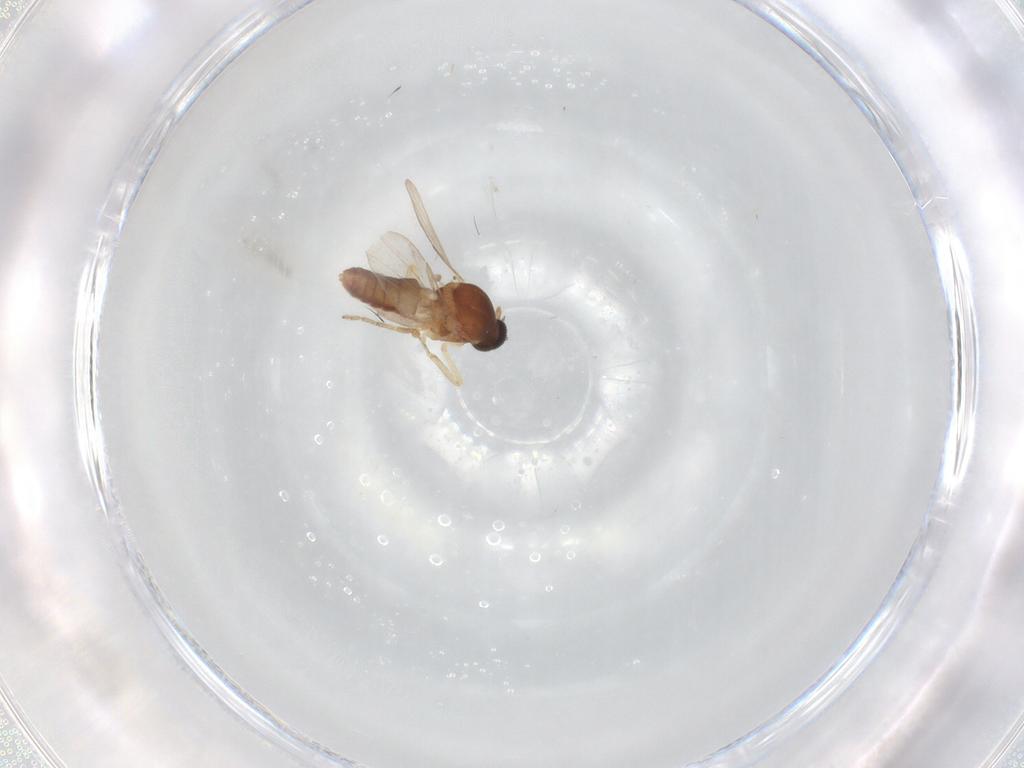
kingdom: Animalia
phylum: Arthropoda
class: Insecta
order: Diptera
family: Ceratopogonidae
